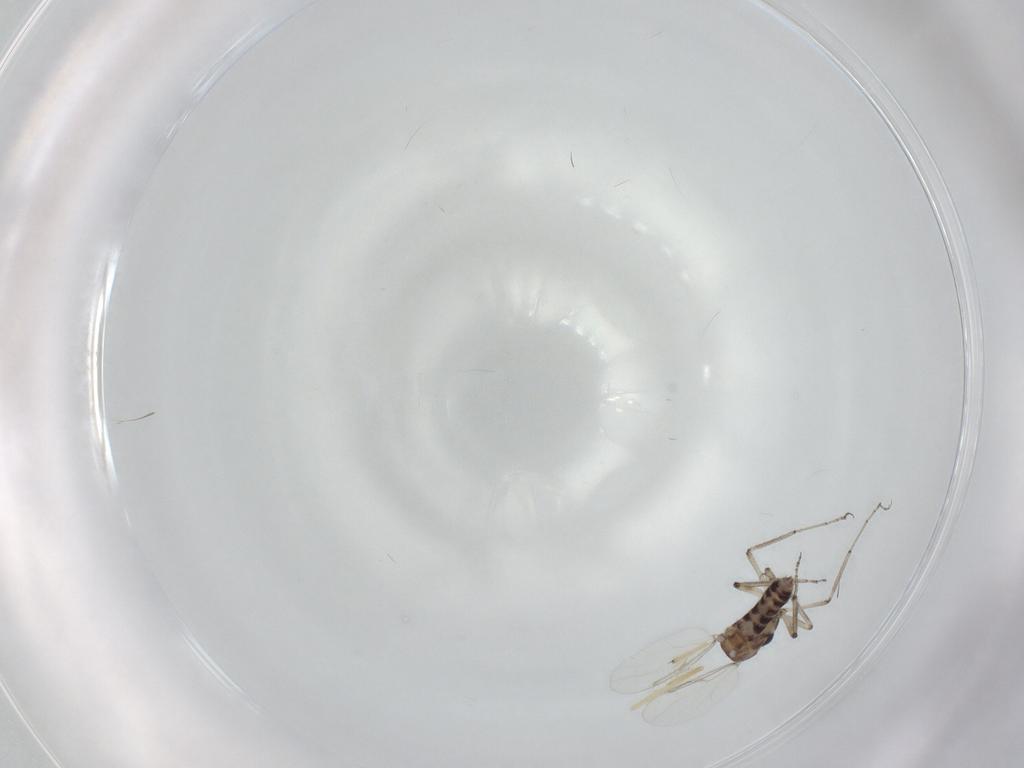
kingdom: Animalia
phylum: Arthropoda
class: Insecta
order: Diptera
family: Ceratopogonidae
